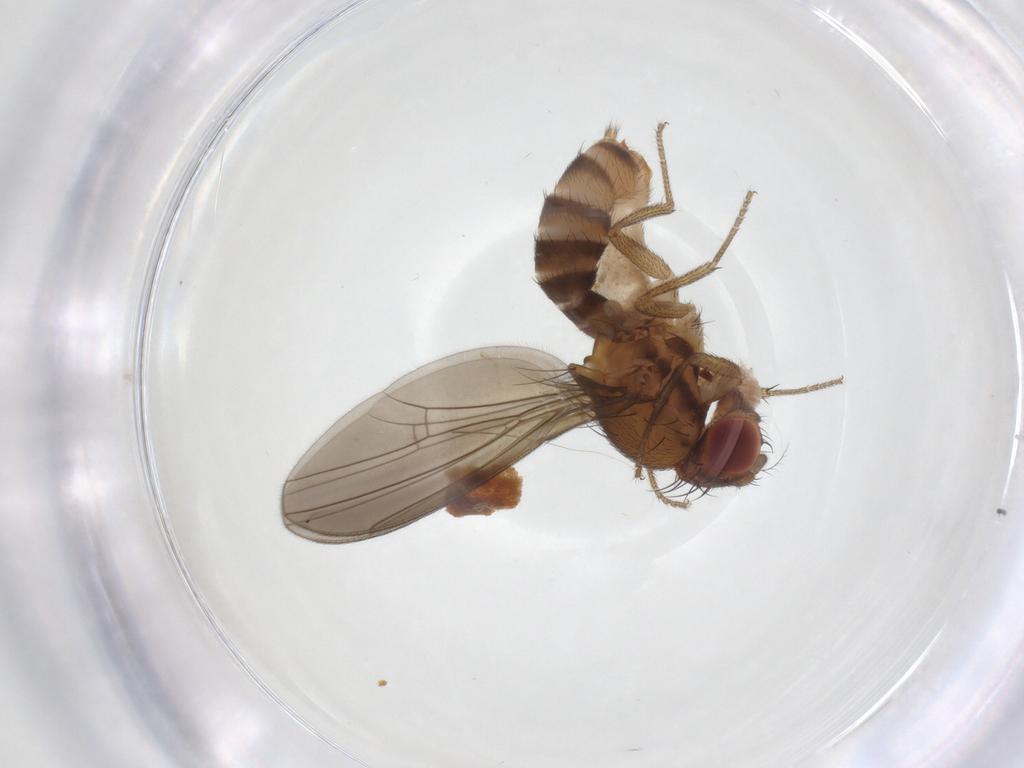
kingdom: Animalia
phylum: Arthropoda
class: Insecta
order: Diptera
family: Drosophilidae
